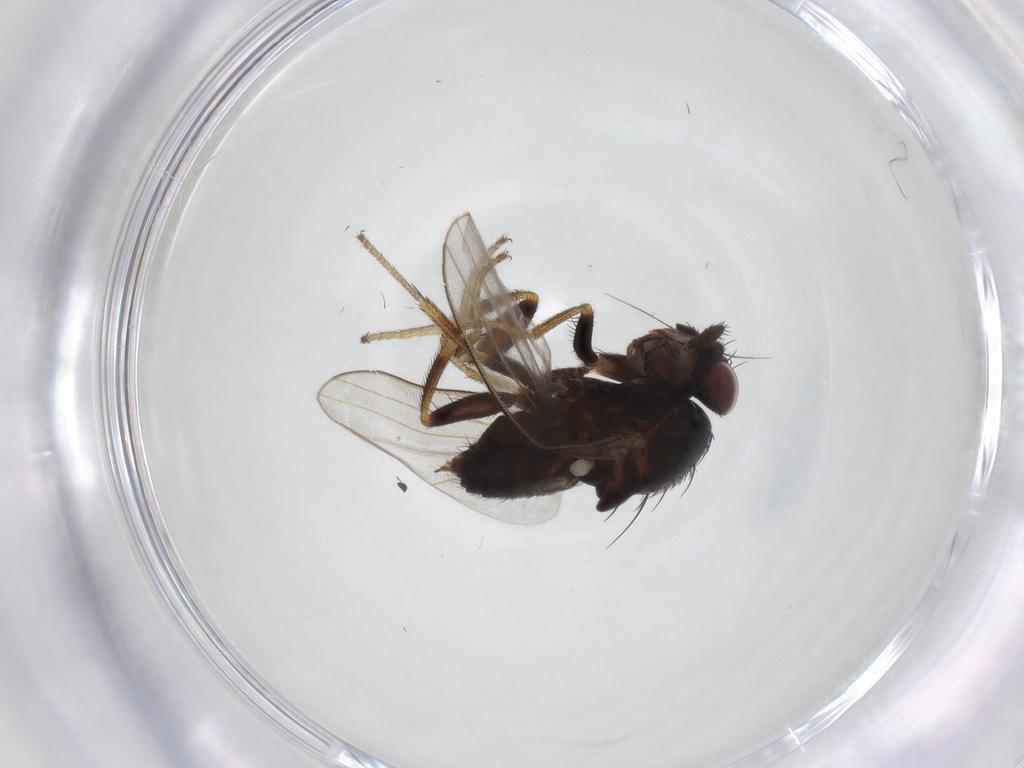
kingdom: Animalia
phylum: Arthropoda
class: Insecta
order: Diptera
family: Milichiidae
